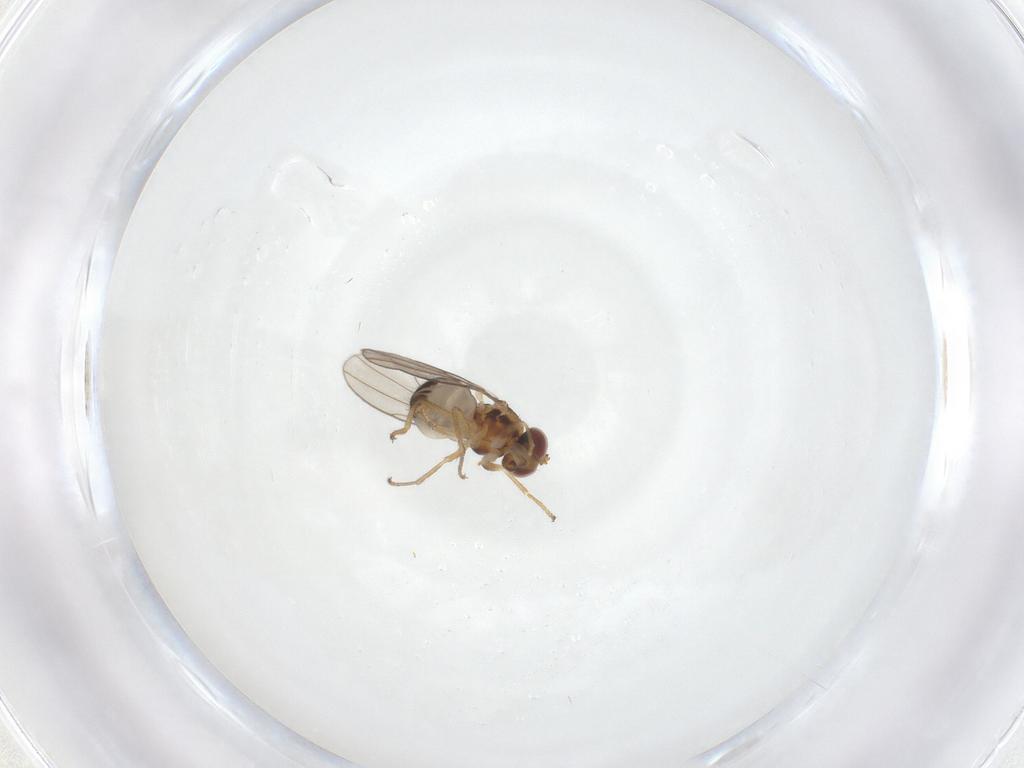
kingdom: Animalia
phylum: Arthropoda
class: Insecta
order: Diptera
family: Ephydridae
